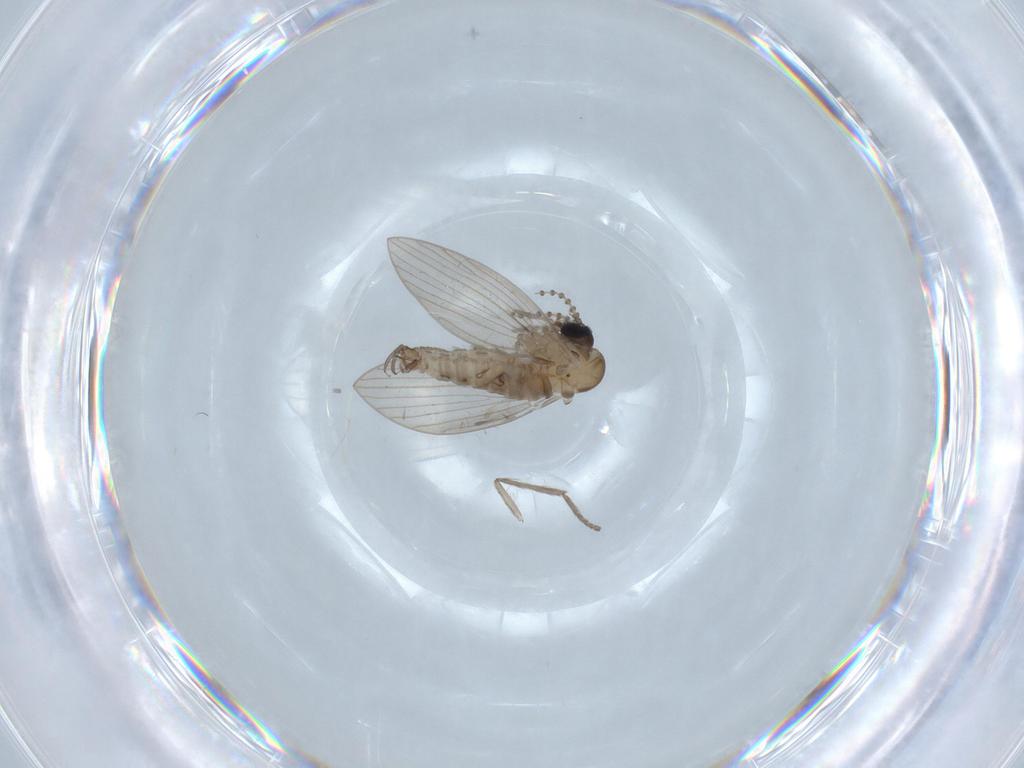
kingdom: Animalia
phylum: Arthropoda
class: Insecta
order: Diptera
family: Psychodidae
